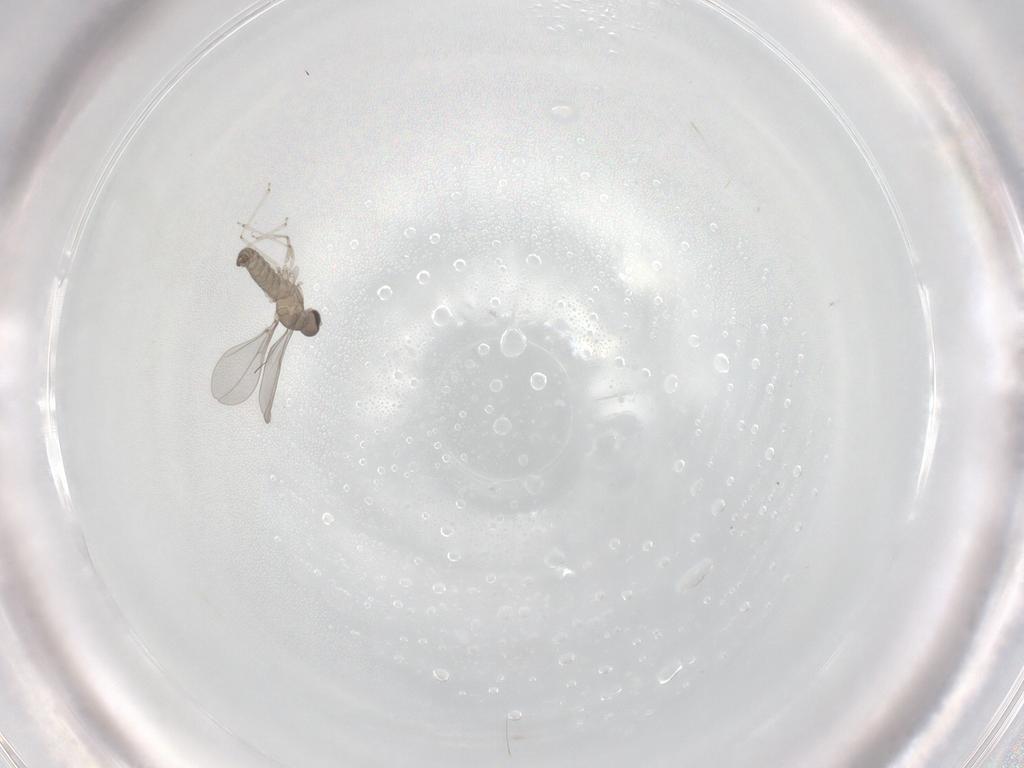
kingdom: Animalia
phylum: Arthropoda
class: Insecta
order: Diptera
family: Cecidomyiidae
